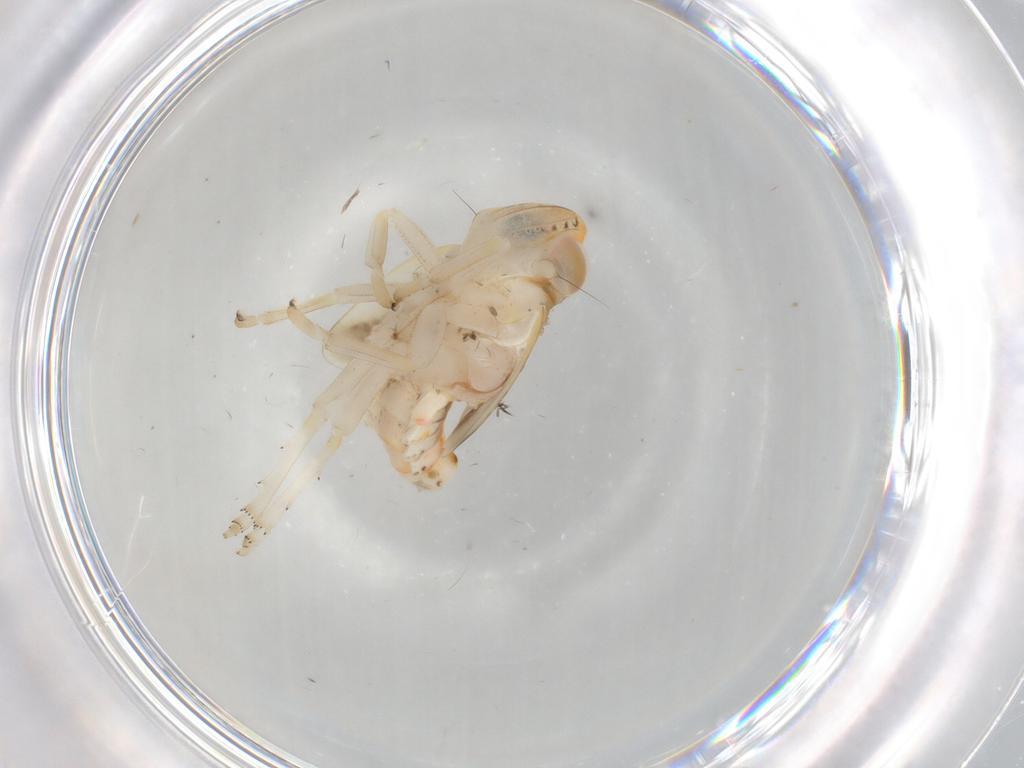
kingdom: Animalia
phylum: Arthropoda
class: Insecta
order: Hemiptera
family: Nogodinidae
